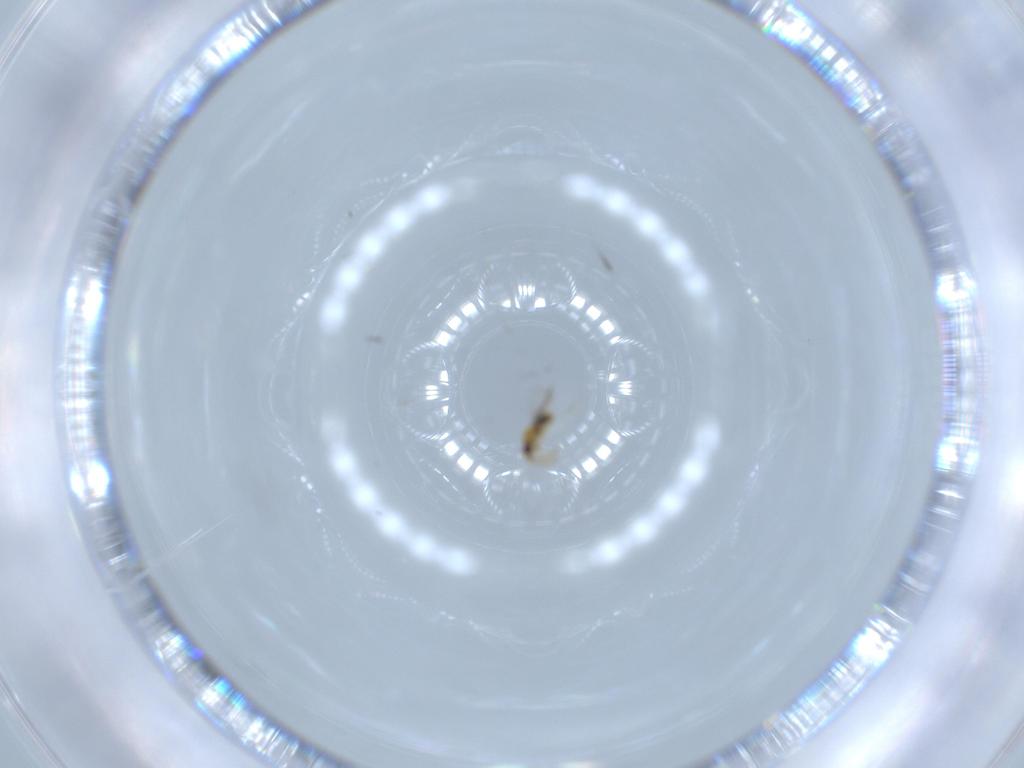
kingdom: Animalia
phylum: Arthropoda
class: Insecta
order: Hymenoptera
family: Aphelinidae
